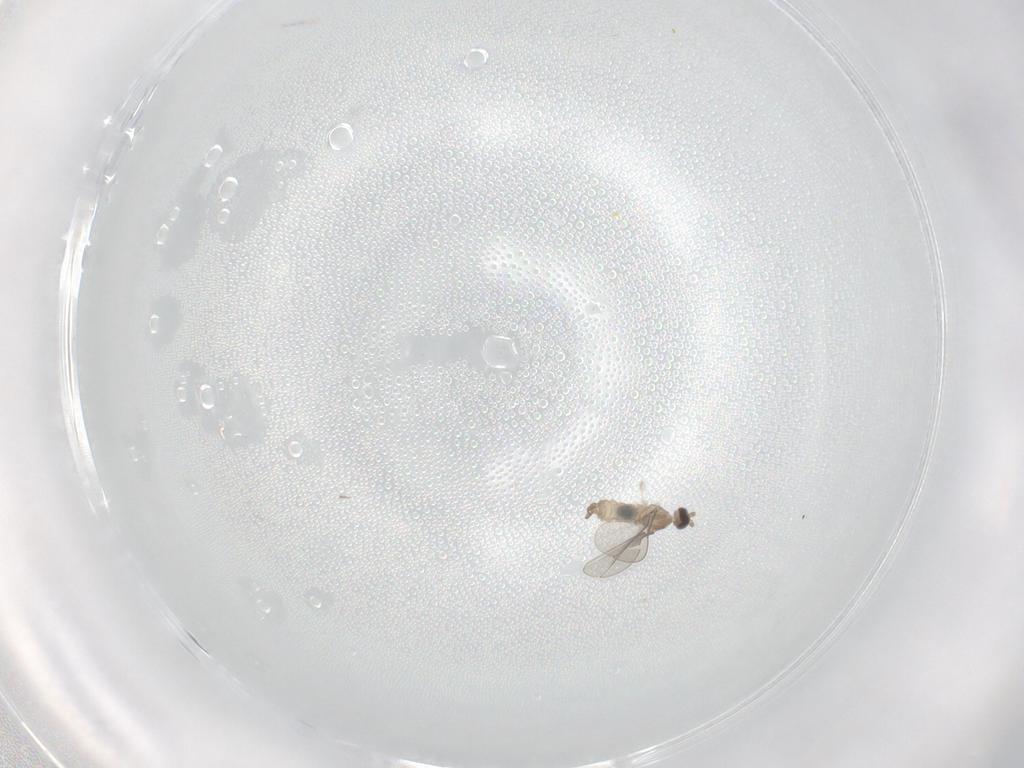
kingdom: Animalia
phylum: Arthropoda
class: Insecta
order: Diptera
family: Cecidomyiidae
